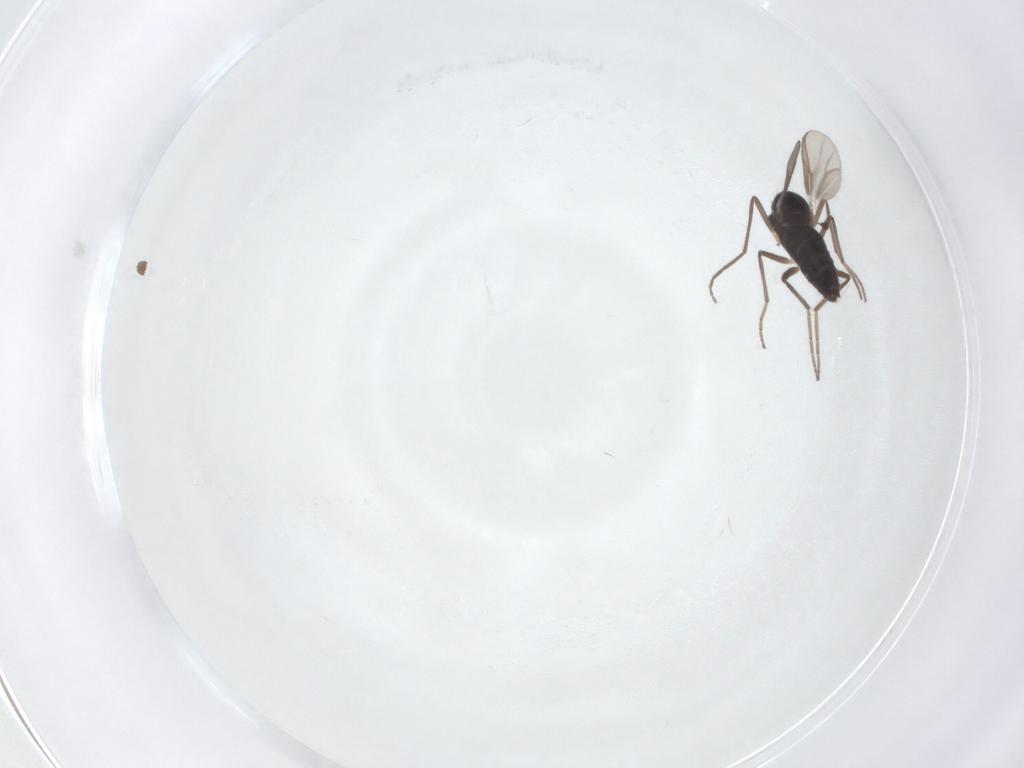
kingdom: Animalia
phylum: Arthropoda
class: Insecta
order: Diptera
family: Chironomidae
